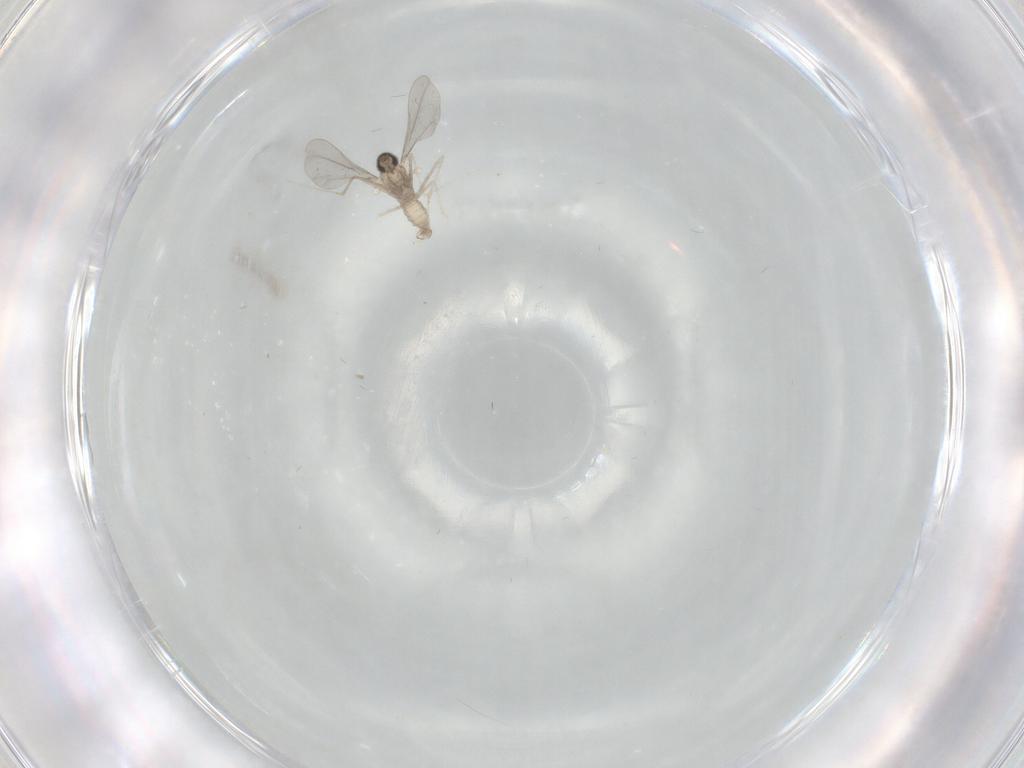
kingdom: Animalia
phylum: Arthropoda
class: Insecta
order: Diptera
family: Cecidomyiidae
